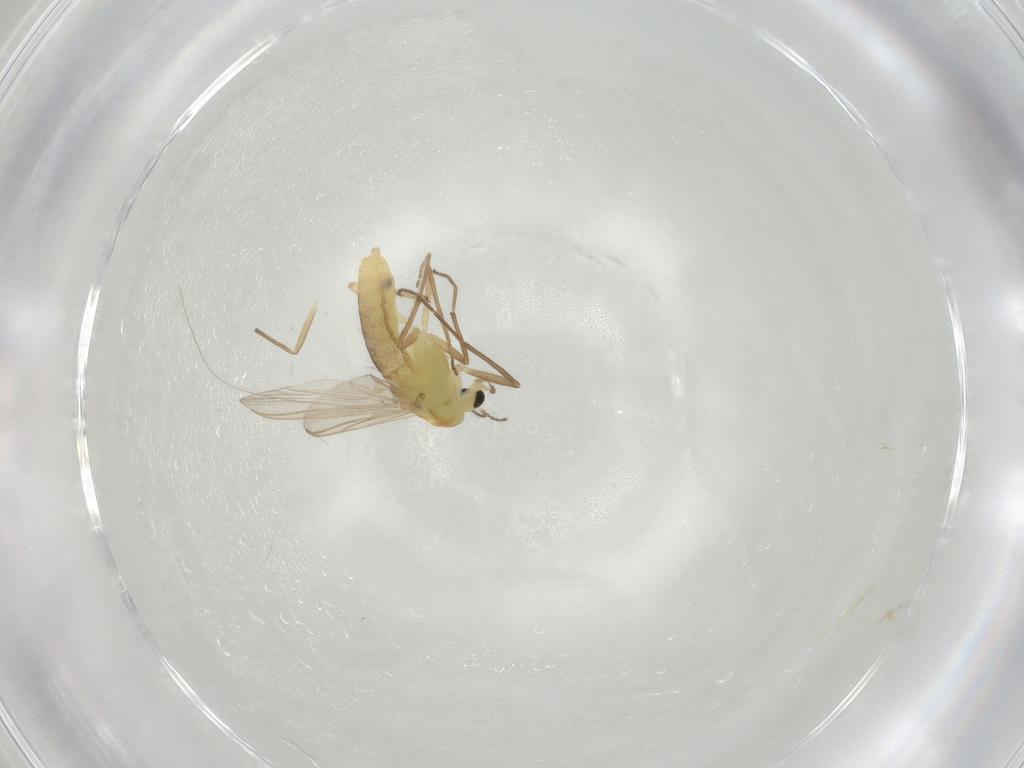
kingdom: Animalia
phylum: Arthropoda
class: Insecta
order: Diptera
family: Chironomidae
